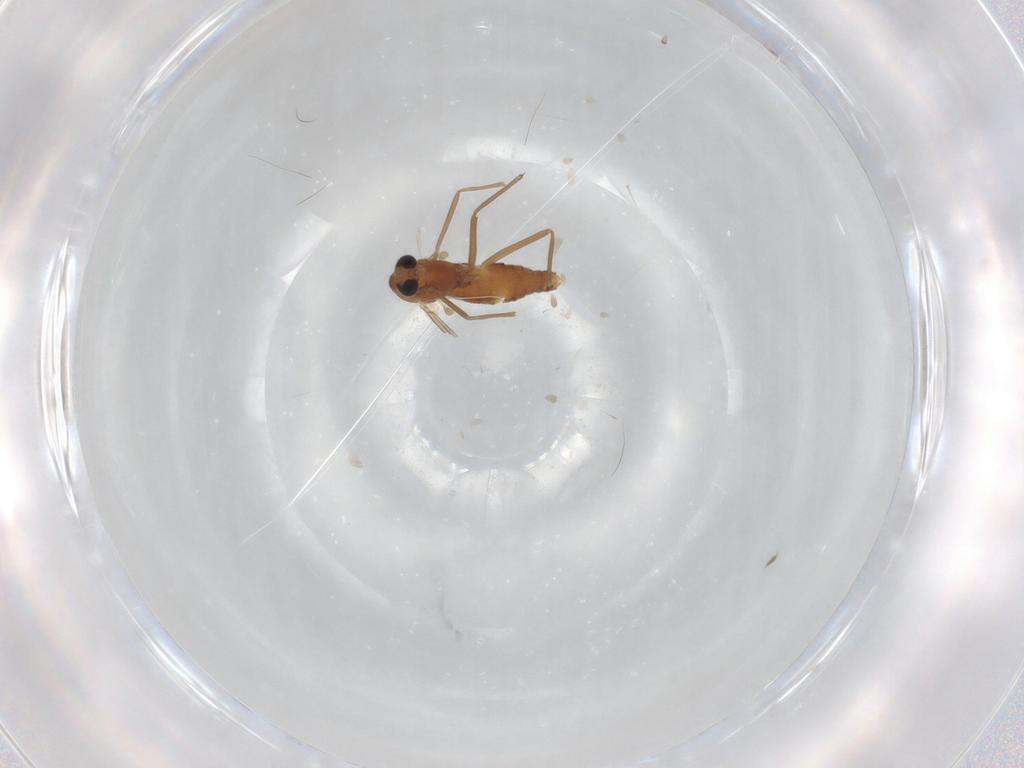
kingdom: Animalia
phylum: Arthropoda
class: Insecta
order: Diptera
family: Chironomidae
